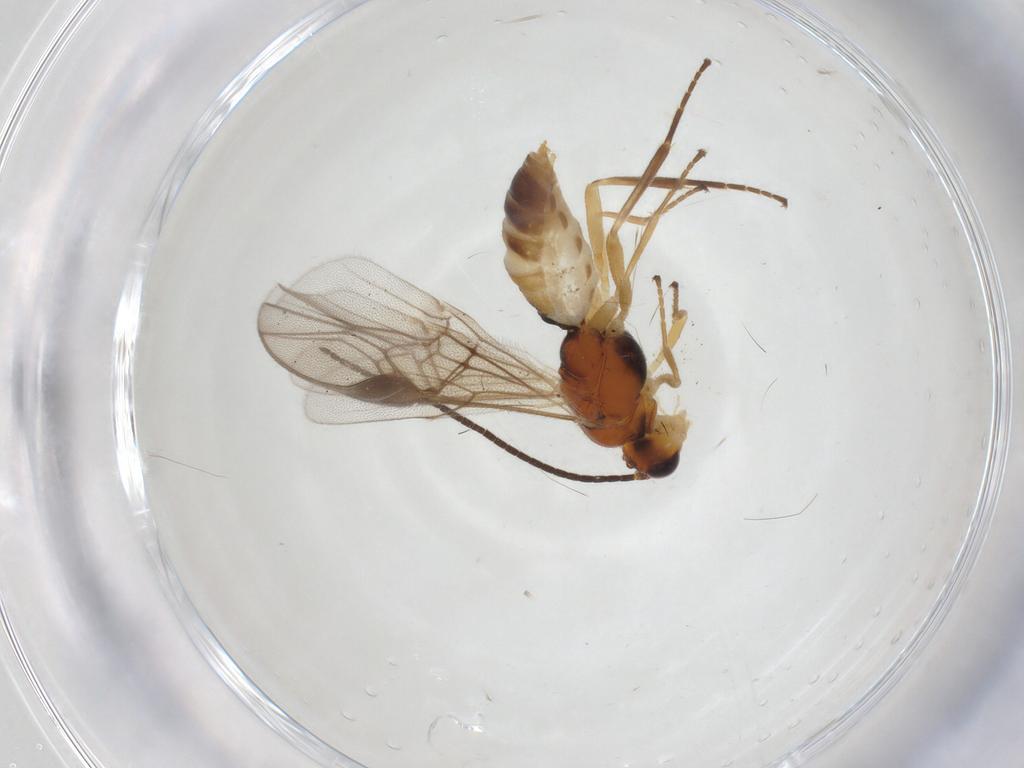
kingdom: Animalia
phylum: Arthropoda
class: Insecta
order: Hymenoptera
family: Braconidae
